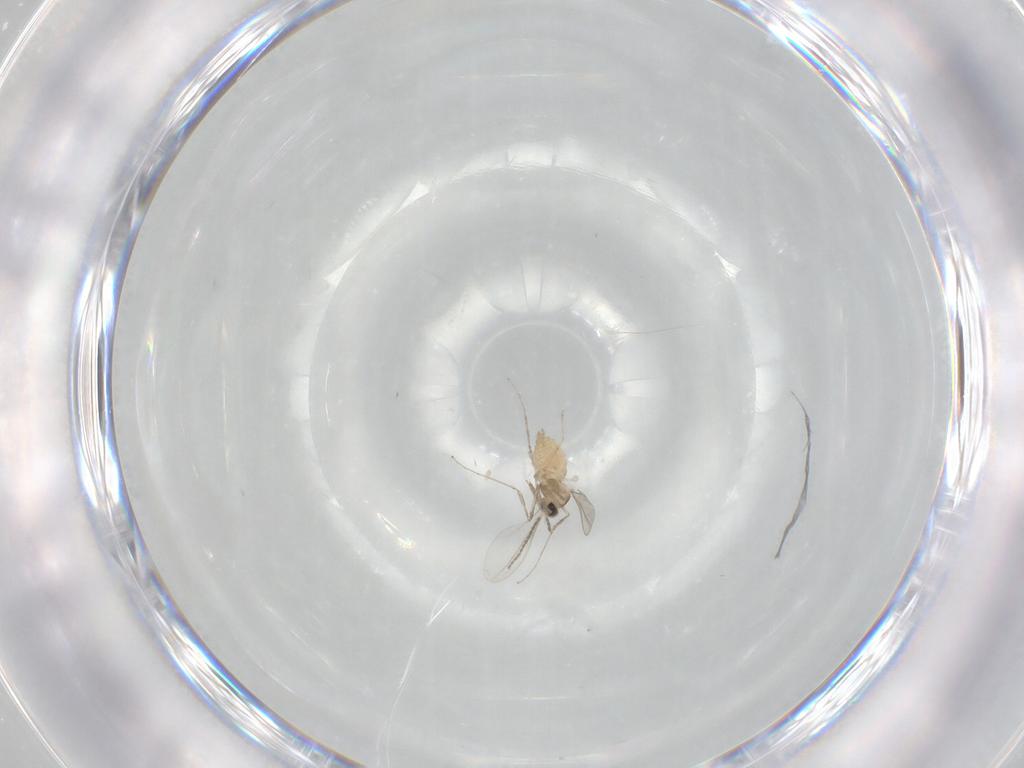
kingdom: Animalia
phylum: Arthropoda
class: Insecta
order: Diptera
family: Cecidomyiidae
